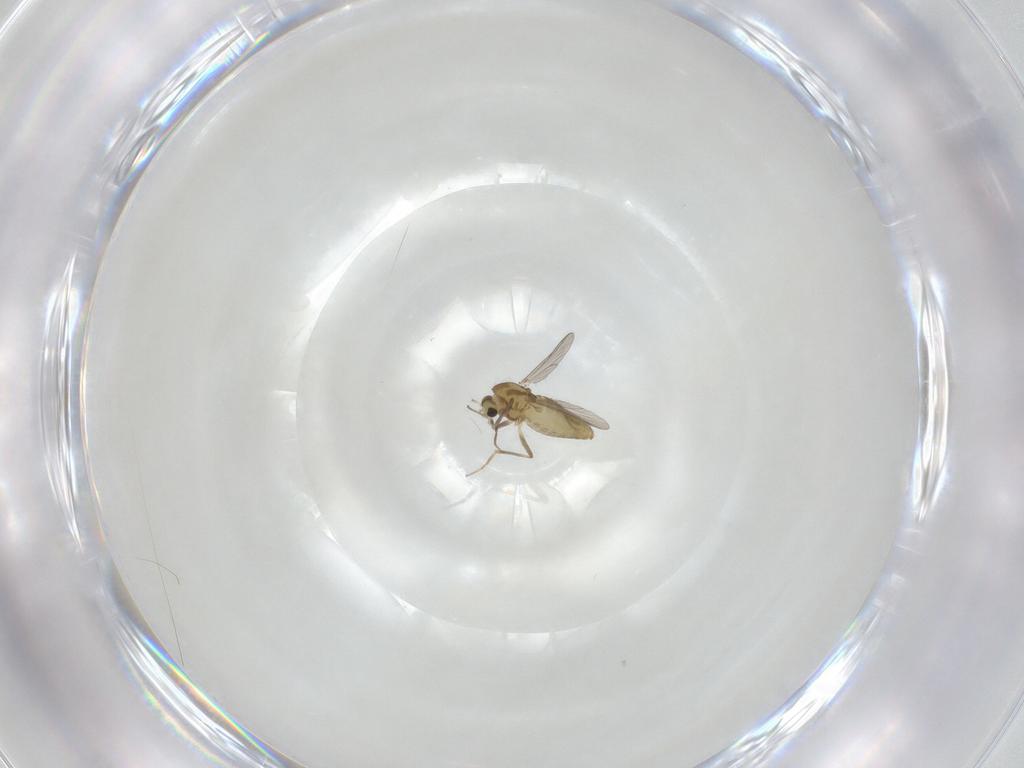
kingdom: Animalia
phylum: Arthropoda
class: Insecta
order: Diptera
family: Chironomidae
